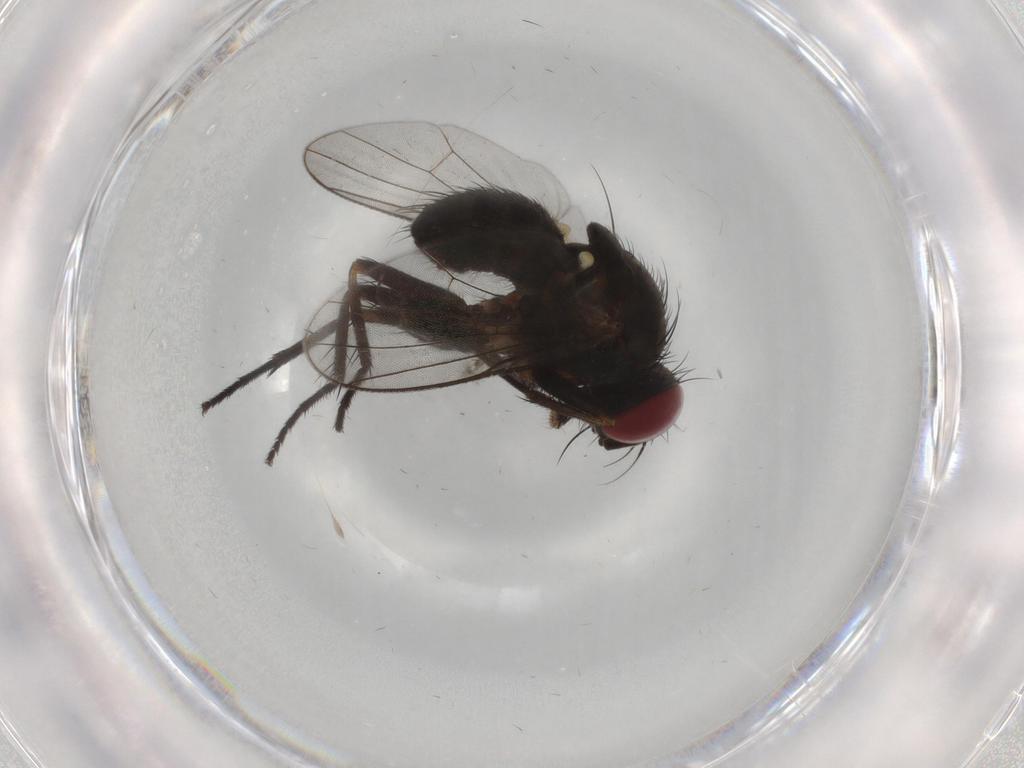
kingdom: Animalia
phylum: Arthropoda
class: Insecta
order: Diptera
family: Muscidae
